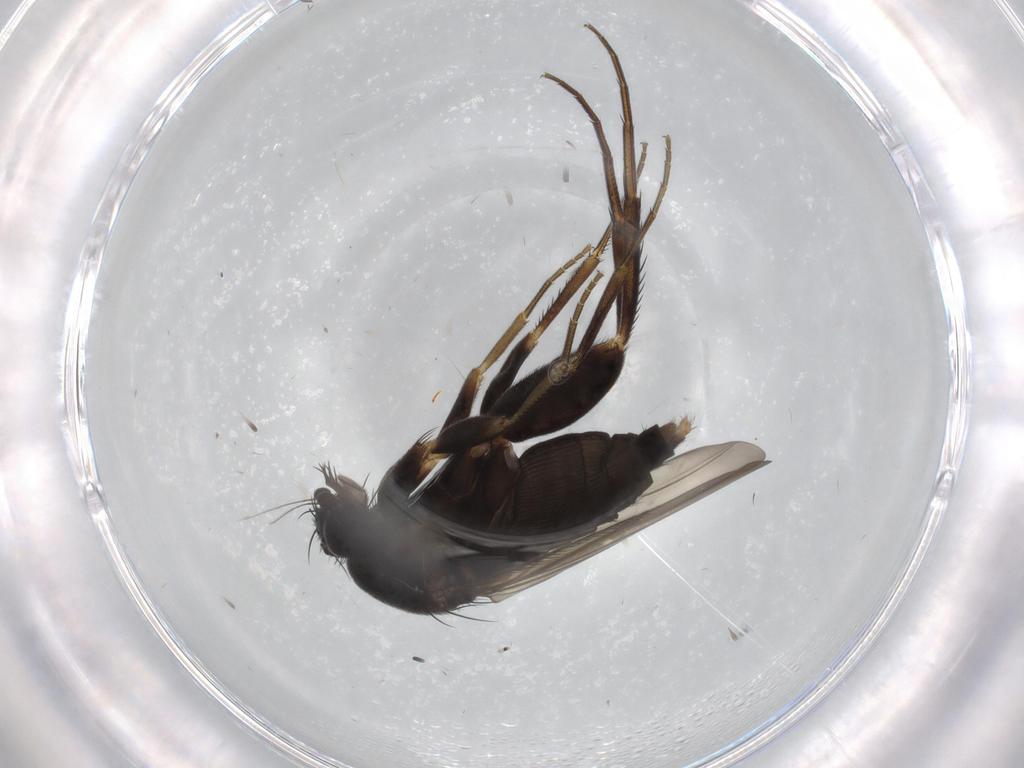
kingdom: Animalia
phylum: Arthropoda
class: Insecta
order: Diptera
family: Phoridae
